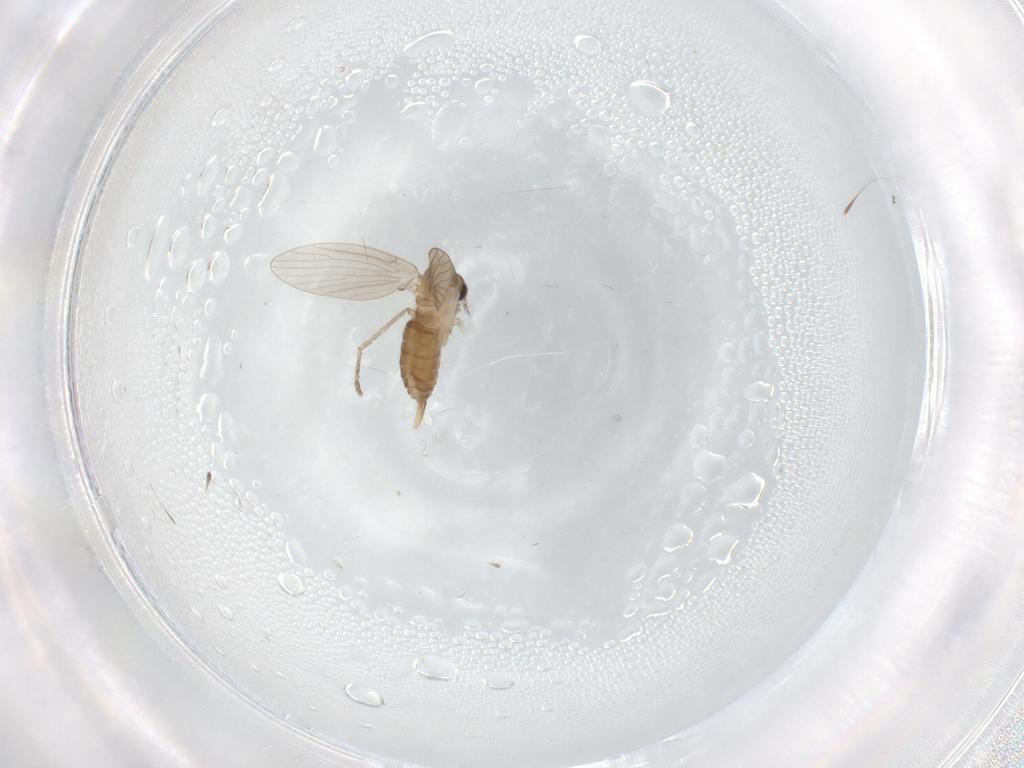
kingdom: Animalia
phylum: Arthropoda
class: Insecta
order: Diptera
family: Cecidomyiidae
